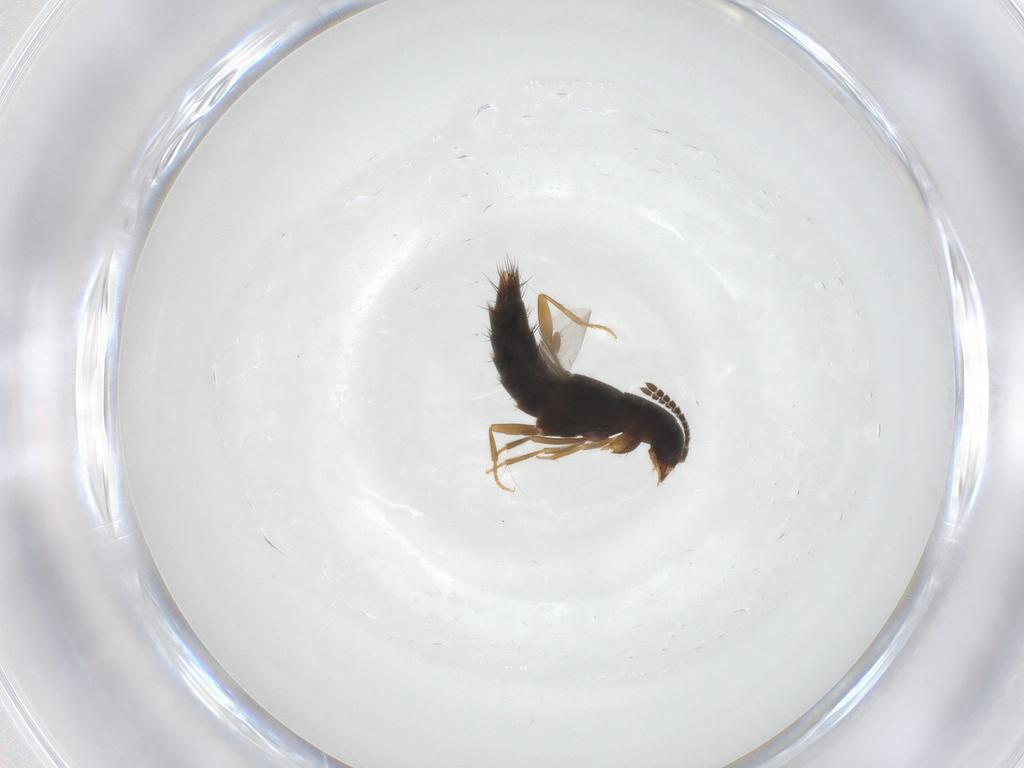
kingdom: Animalia
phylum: Arthropoda
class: Insecta
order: Coleoptera
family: Staphylinidae
